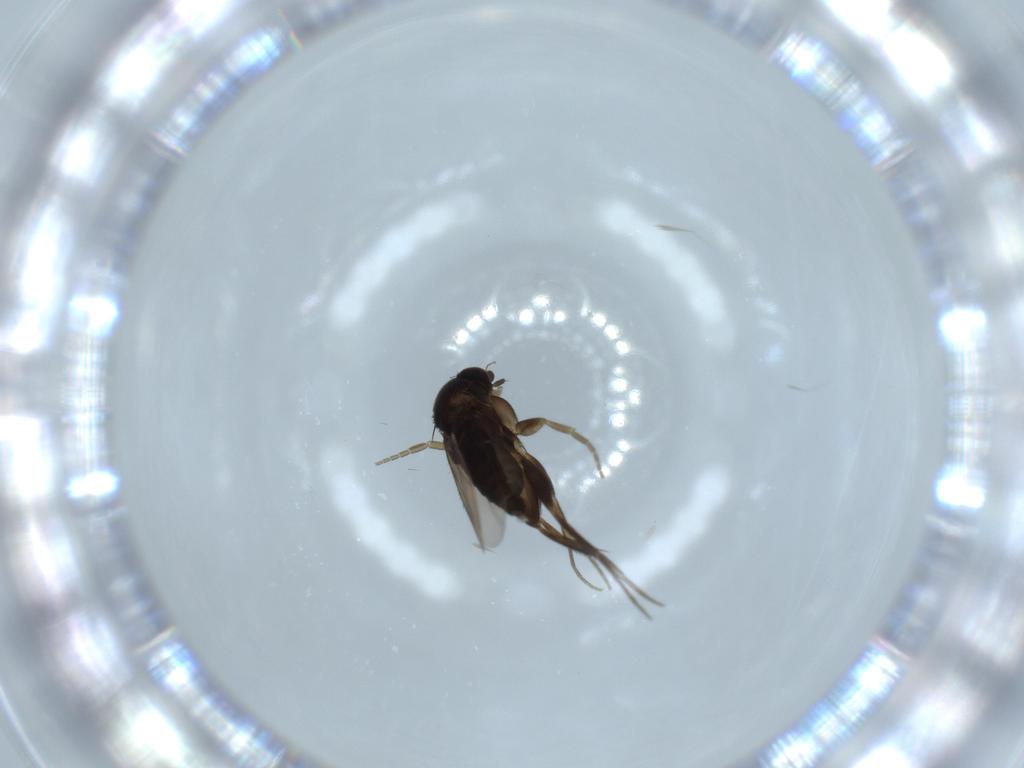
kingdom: Animalia
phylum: Arthropoda
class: Insecta
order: Diptera
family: Phoridae
